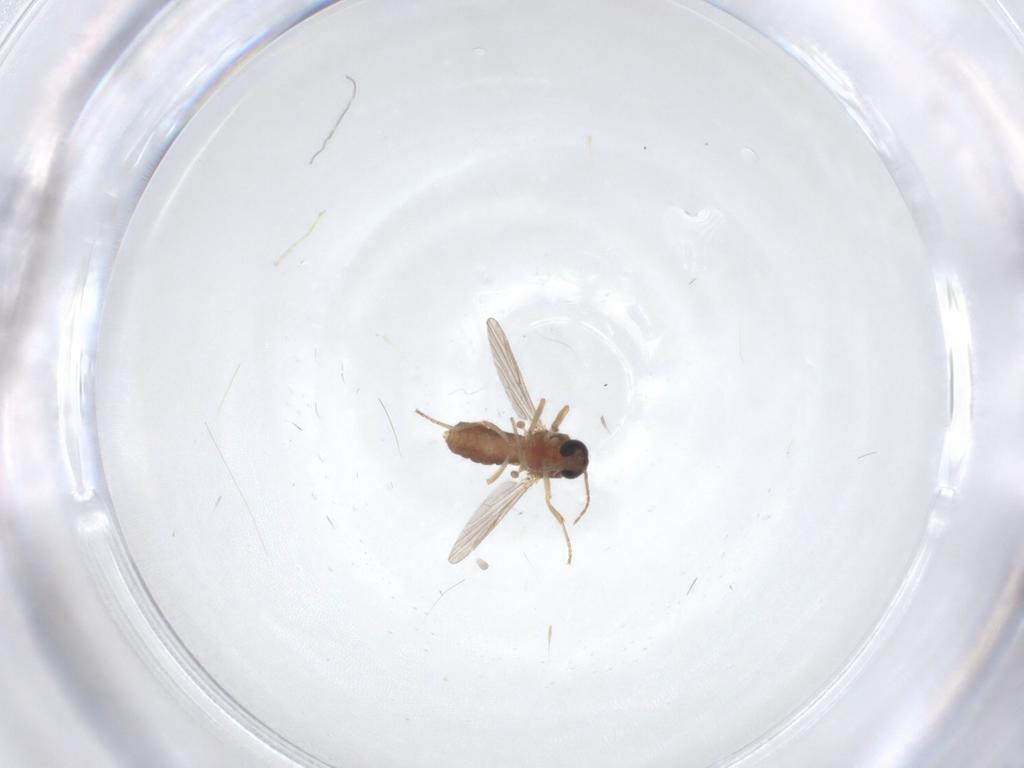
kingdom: Animalia
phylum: Arthropoda
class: Insecta
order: Diptera
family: Ceratopogonidae
